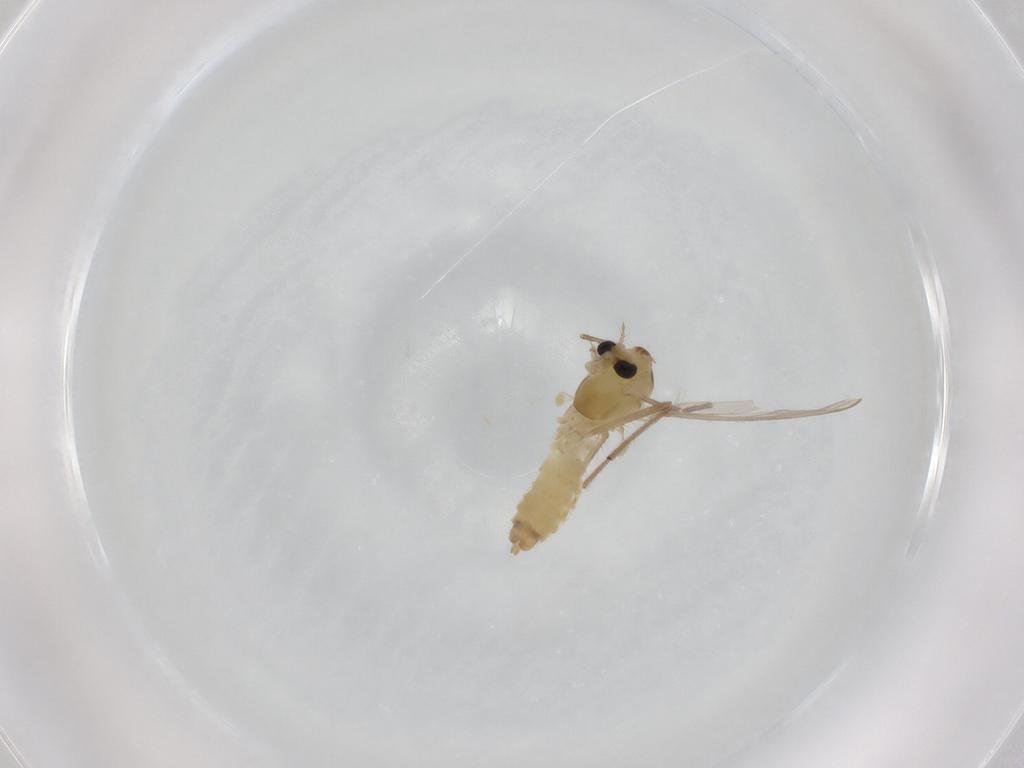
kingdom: Animalia
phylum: Arthropoda
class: Insecta
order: Diptera
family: Chironomidae
